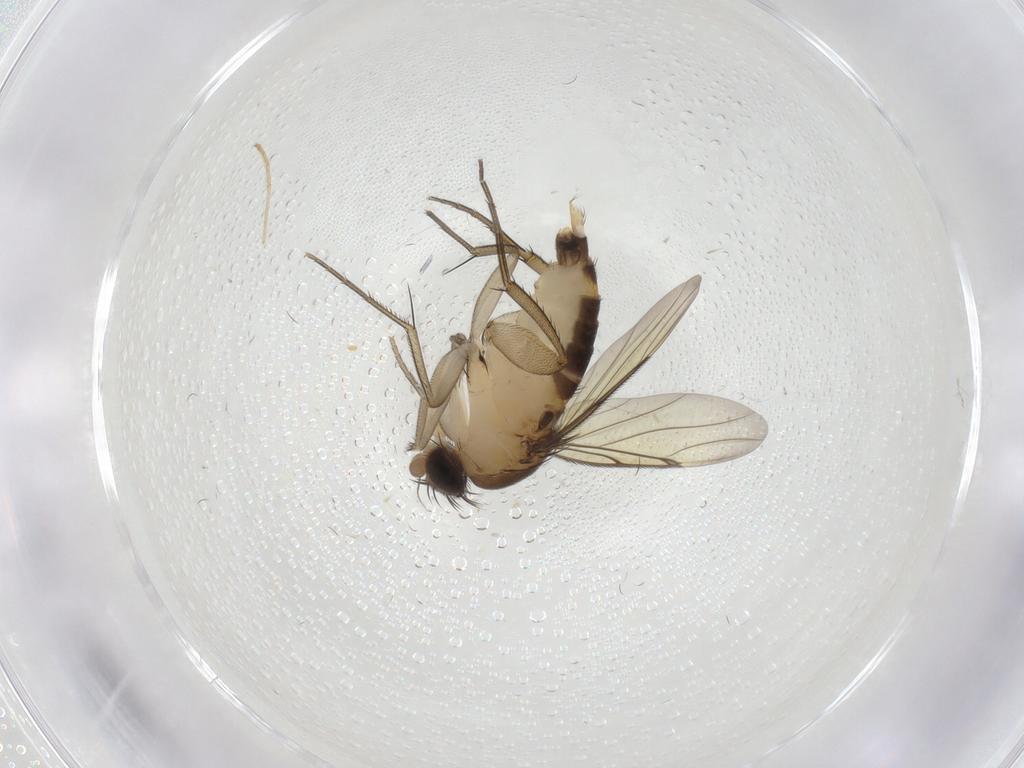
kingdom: Animalia
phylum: Arthropoda
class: Insecta
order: Diptera
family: Phoridae
